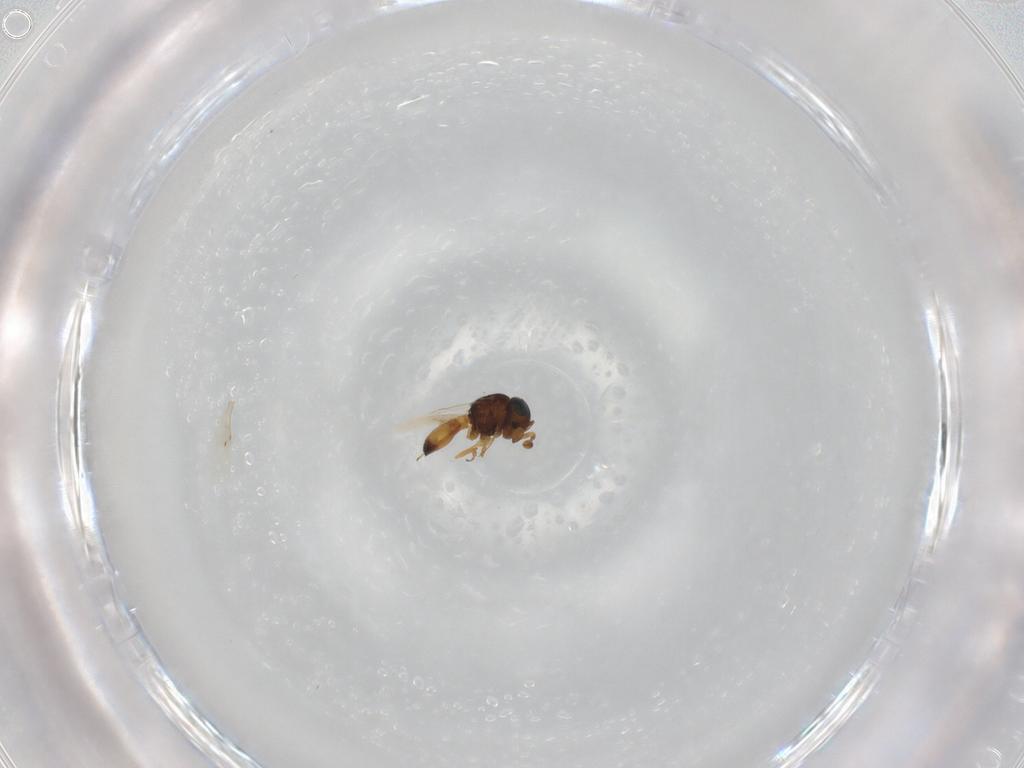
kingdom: Animalia
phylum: Arthropoda
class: Insecta
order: Hymenoptera
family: Scelionidae
